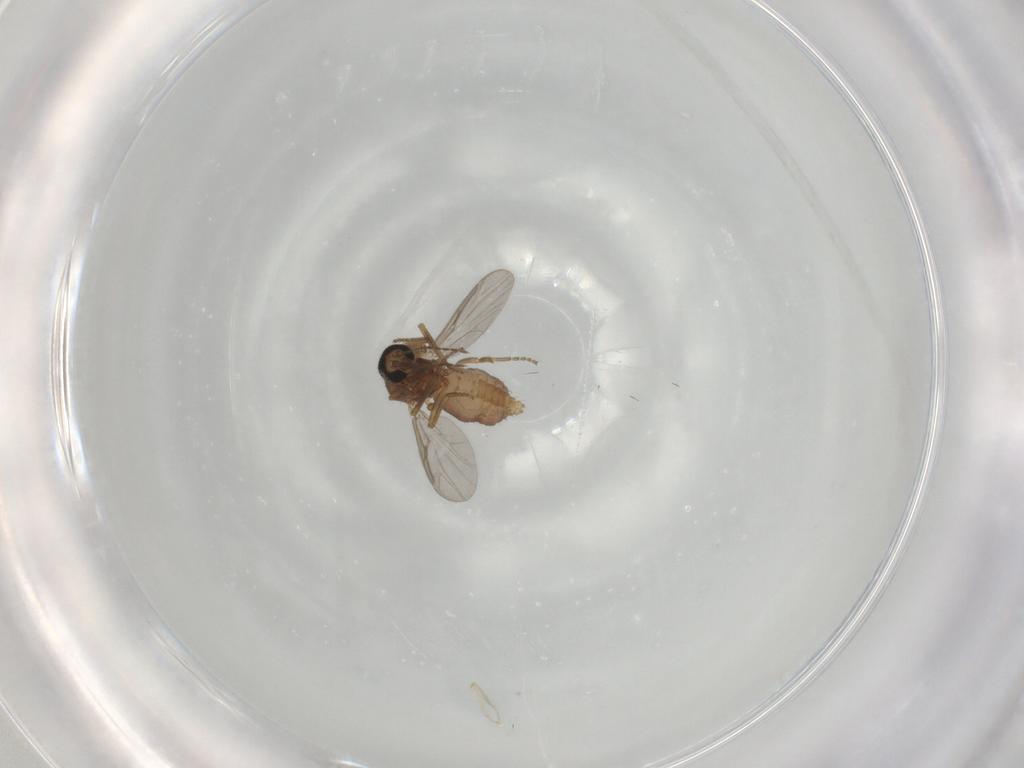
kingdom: Animalia
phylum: Arthropoda
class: Insecta
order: Diptera
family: Ceratopogonidae
